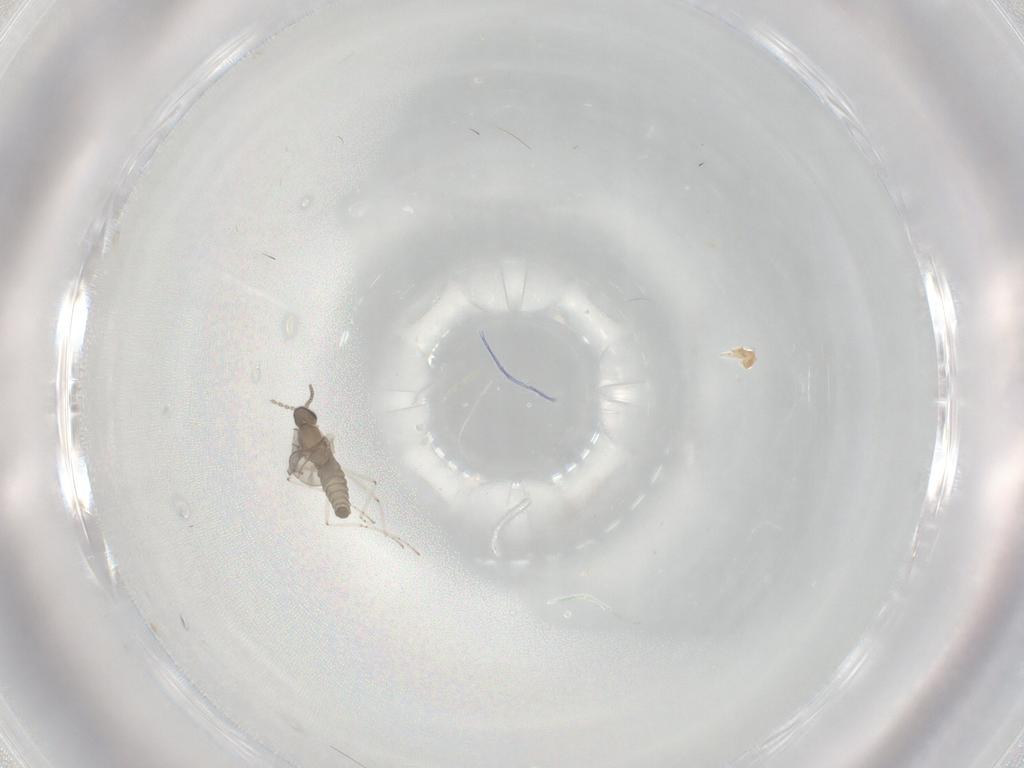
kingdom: Animalia
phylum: Arthropoda
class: Insecta
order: Diptera
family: Cecidomyiidae
